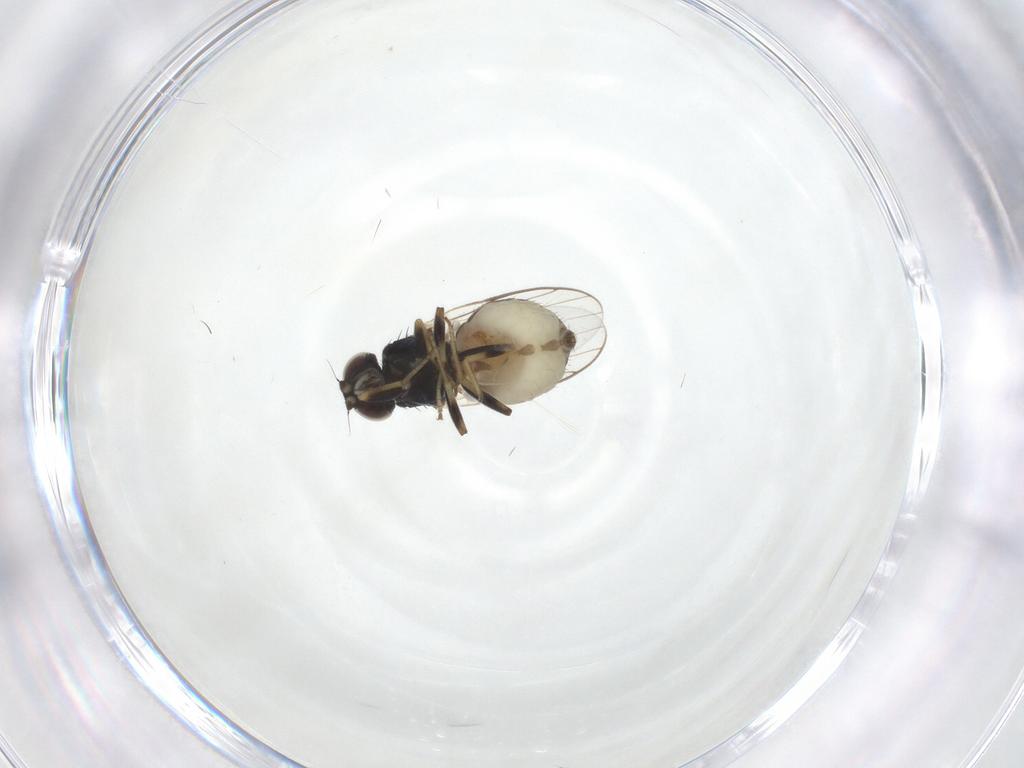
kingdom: Animalia
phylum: Arthropoda
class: Insecta
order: Diptera
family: Chloropidae
